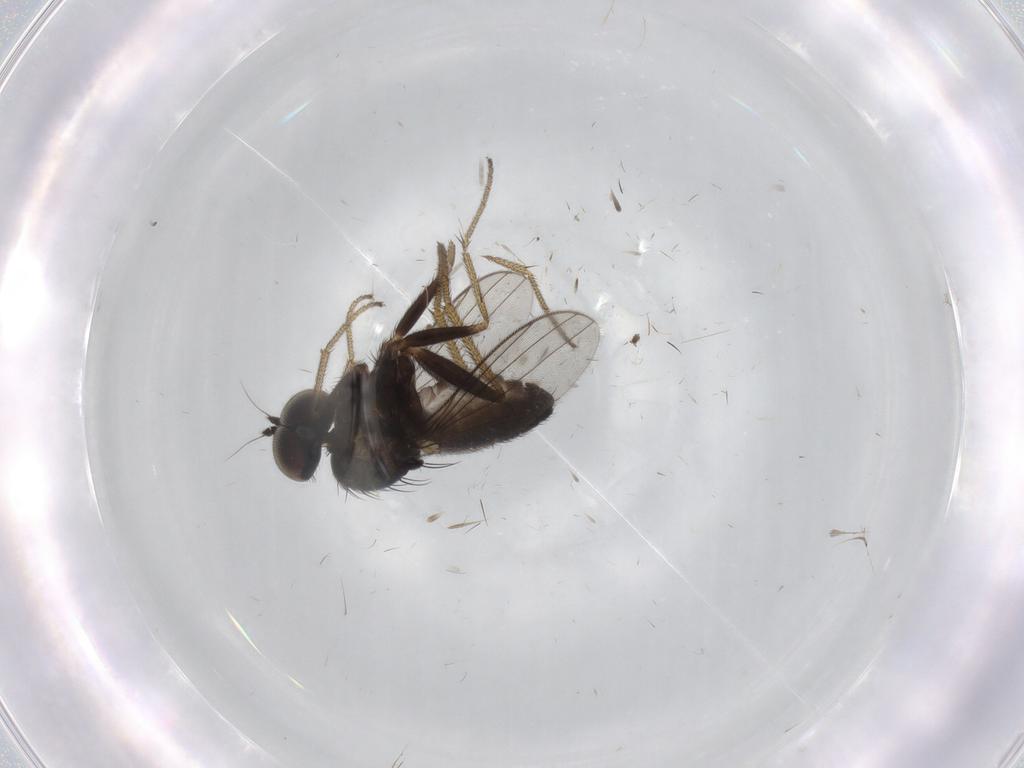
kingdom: Animalia
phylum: Arthropoda
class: Insecta
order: Diptera
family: Dolichopodidae
